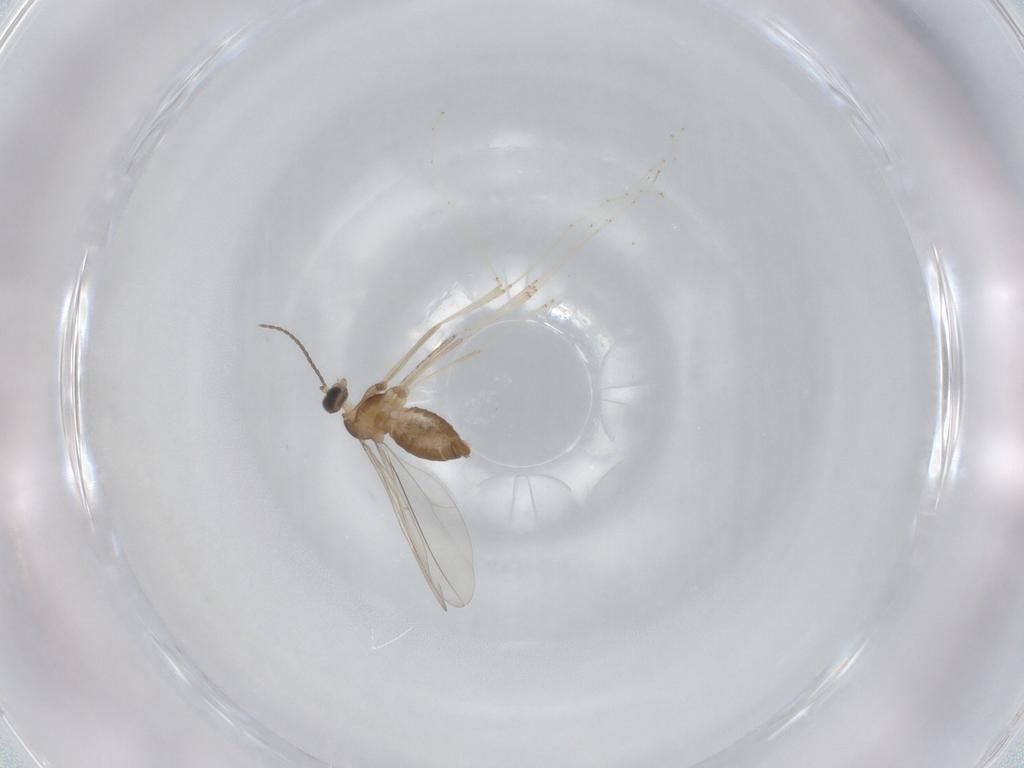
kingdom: Animalia
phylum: Arthropoda
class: Insecta
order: Diptera
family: Cecidomyiidae
